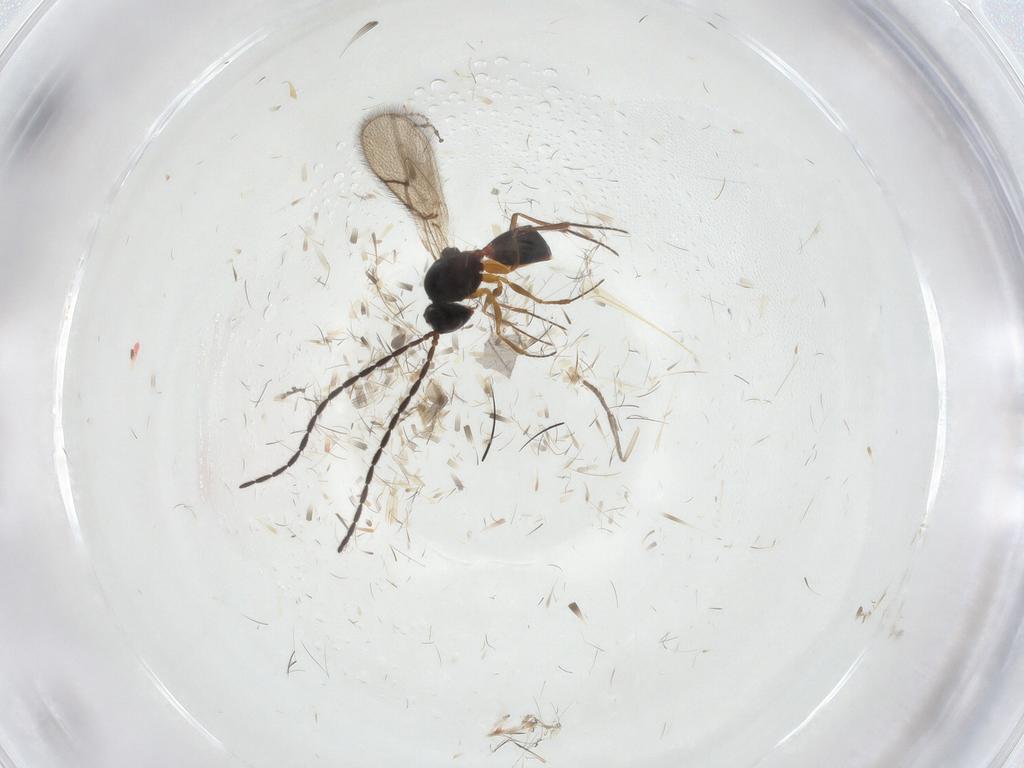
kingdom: Animalia
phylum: Arthropoda
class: Insecta
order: Hymenoptera
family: Figitidae
